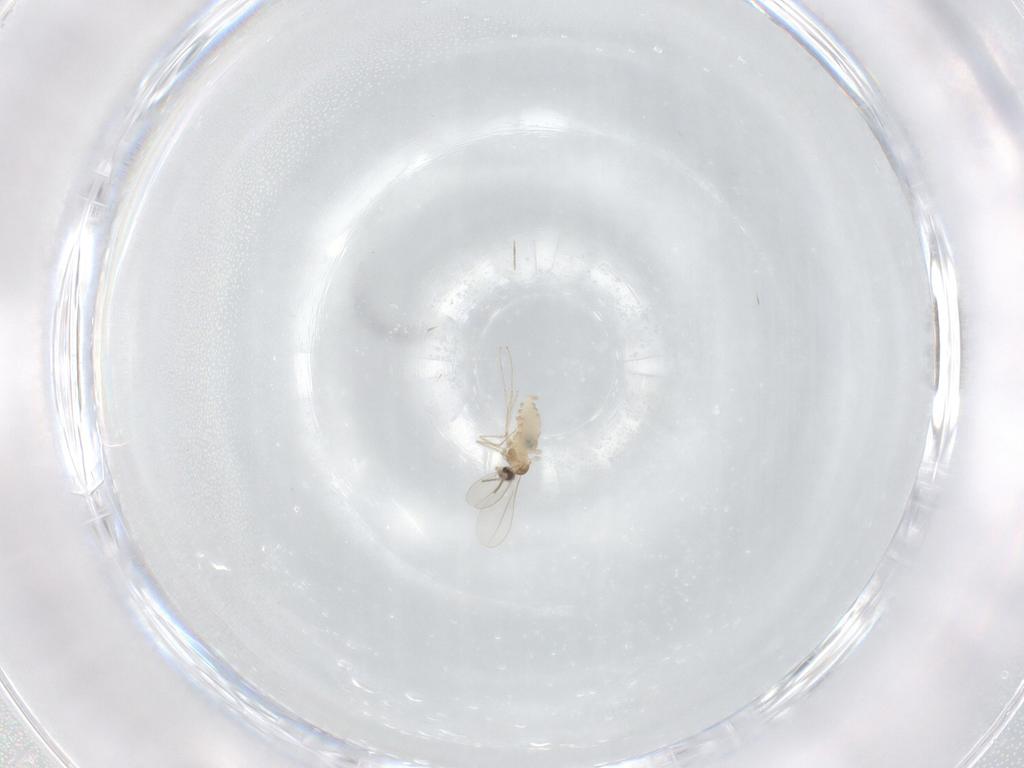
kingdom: Animalia
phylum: Arthropoda
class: Insecta
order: Diptera
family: Cecidomyiidae
